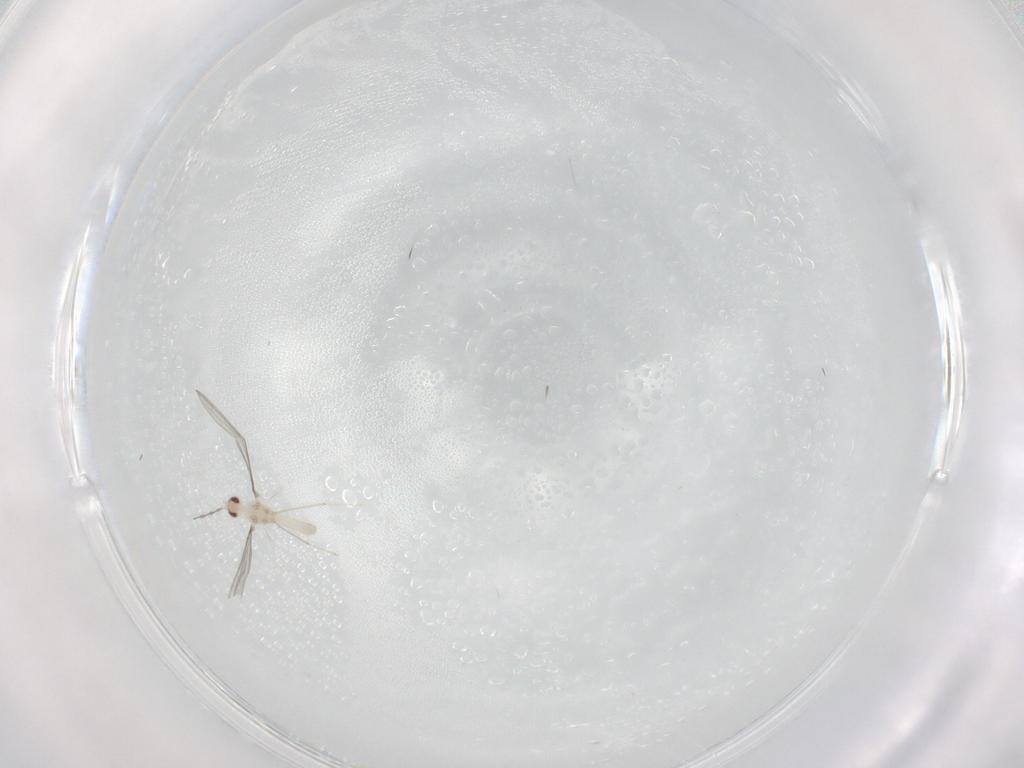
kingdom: Animalia
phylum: Arthropoda
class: Insecta
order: Diptera
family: Cecidomyiidae
